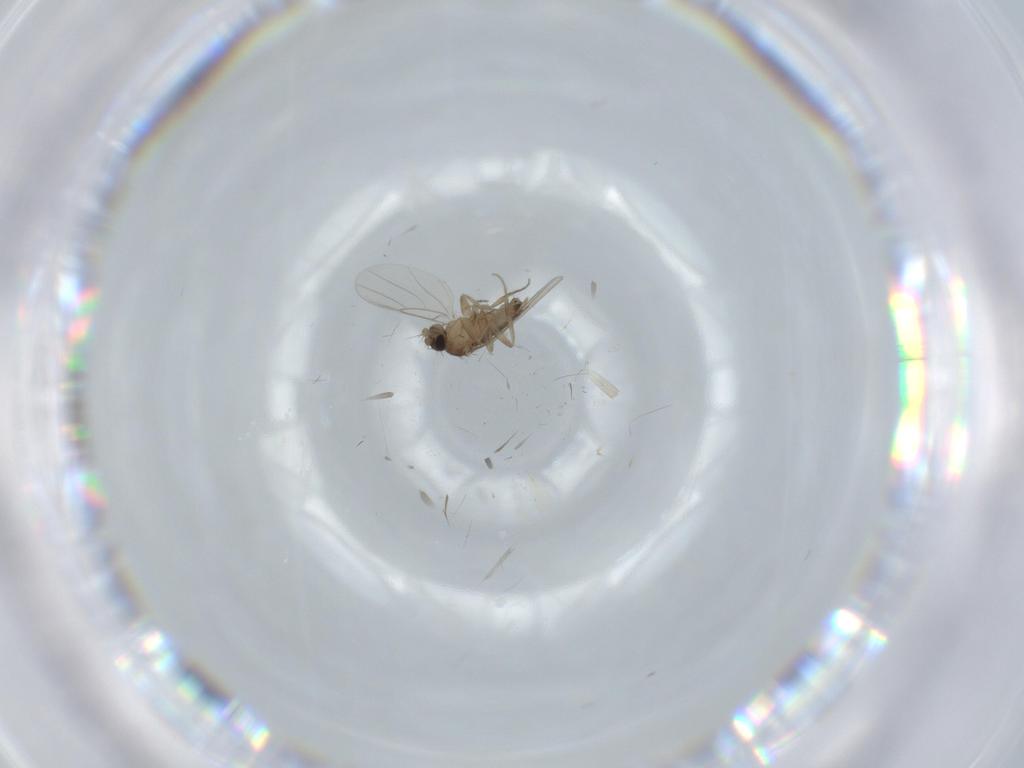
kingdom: Animalia
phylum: Arthropoda
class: Insecta
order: Diptera
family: Phoridae
